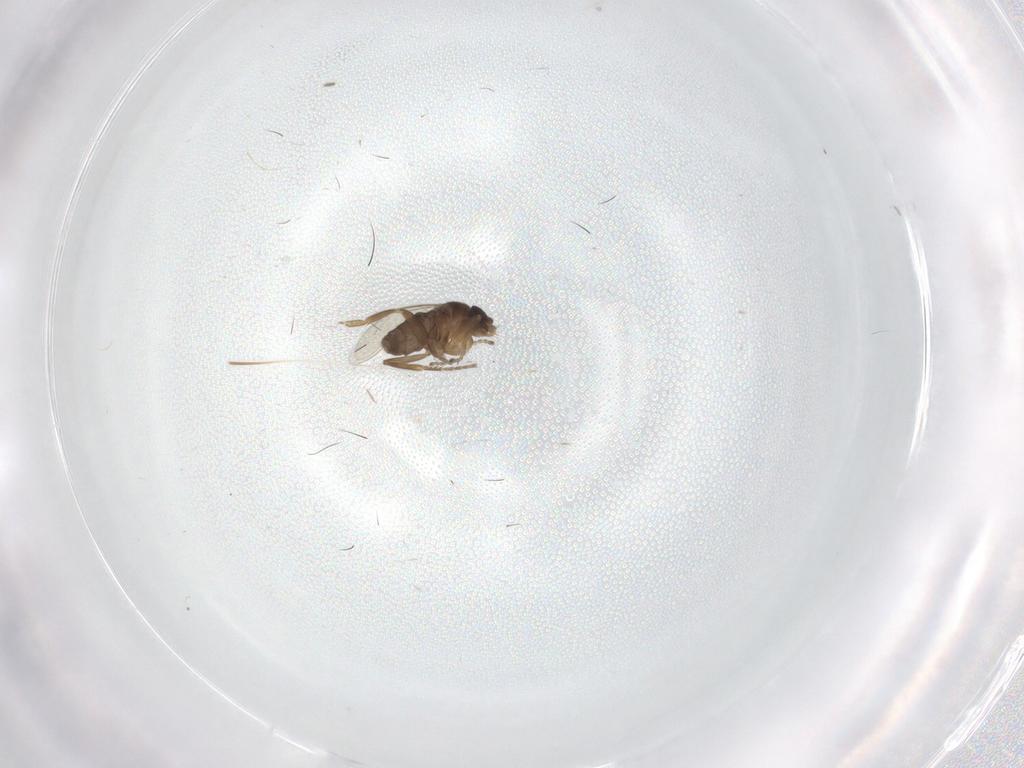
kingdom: Animalia
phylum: Arthropoda
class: Insecta
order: Diptera
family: Phoridae
